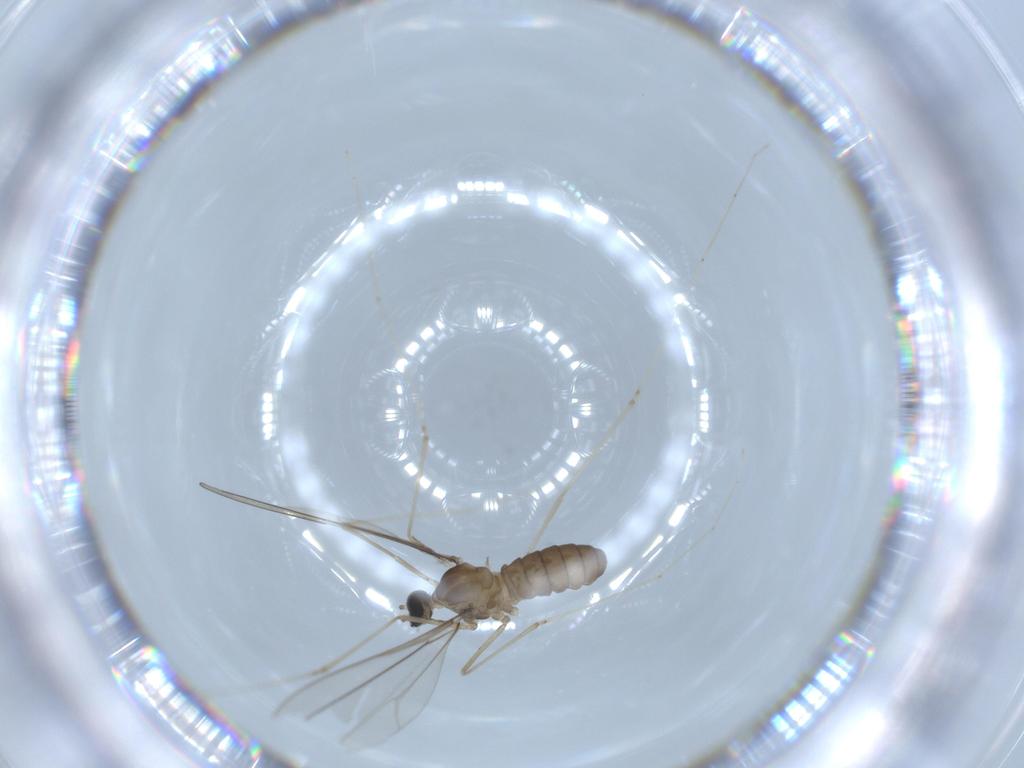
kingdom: Animalia
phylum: Arthropoda
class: Insecta
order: Diptera
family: Cecidomyiidae
